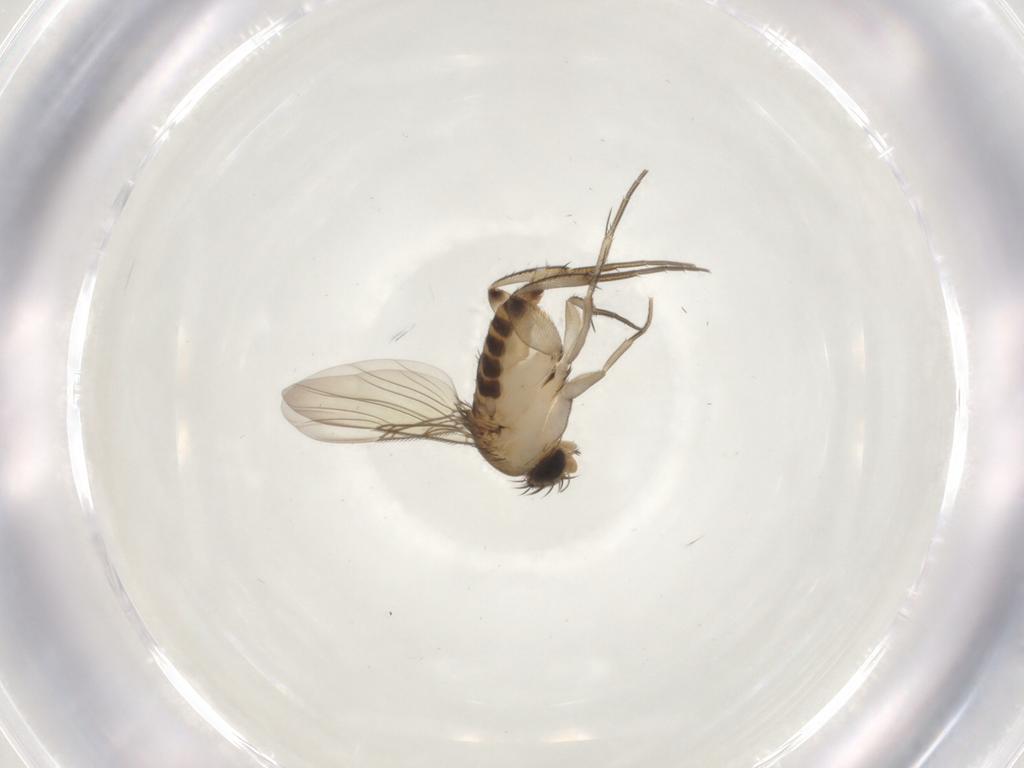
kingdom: Animalia
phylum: Arthropoda
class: Insecta
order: Diptera
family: Phoridae
